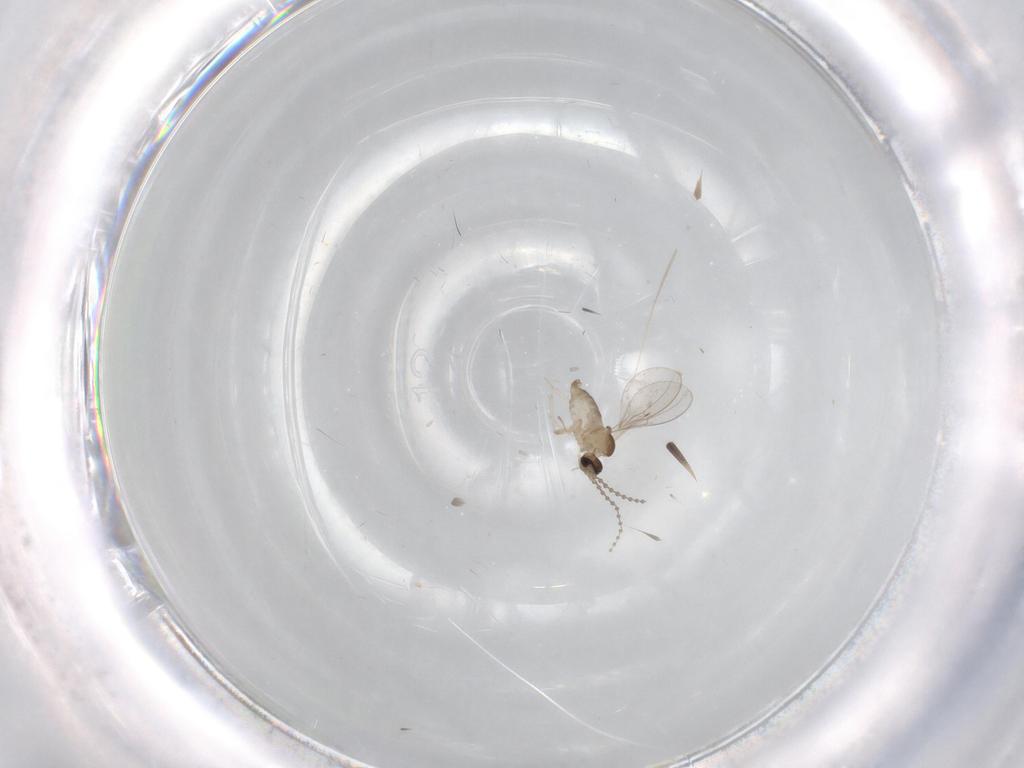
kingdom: Animalia
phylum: Arthropoda
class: Insecta
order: Diptera
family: Cecidomyiidae
